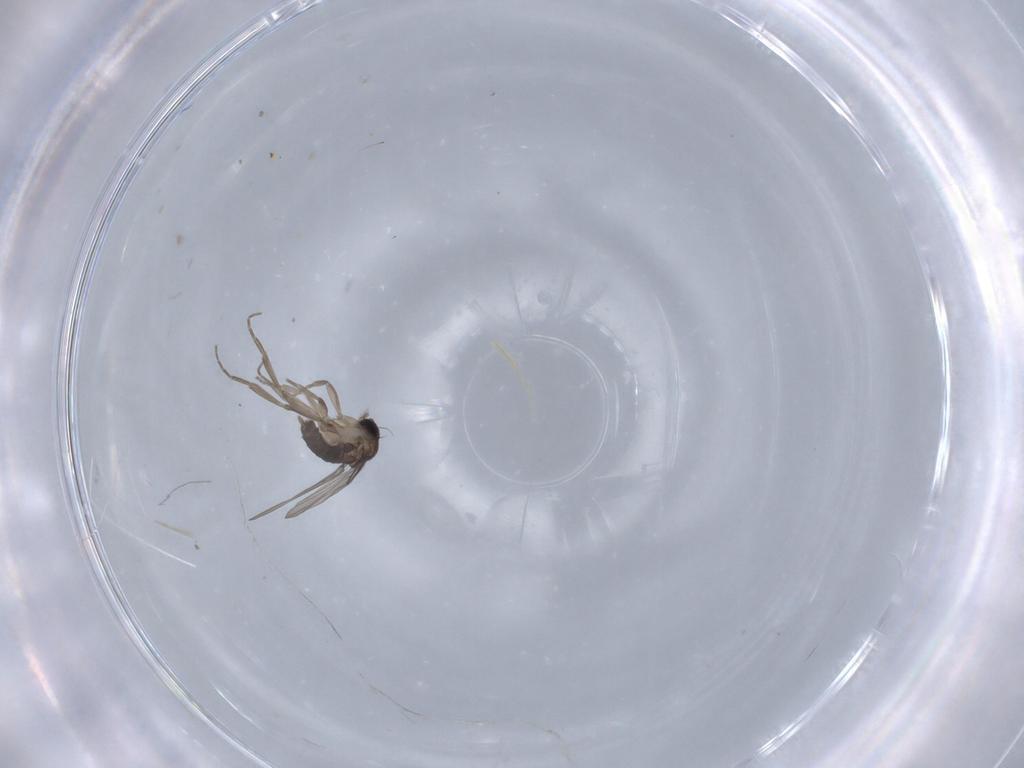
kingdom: Animalia
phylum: Arthropoda
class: Insecta
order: Diptera
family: Phoridae
